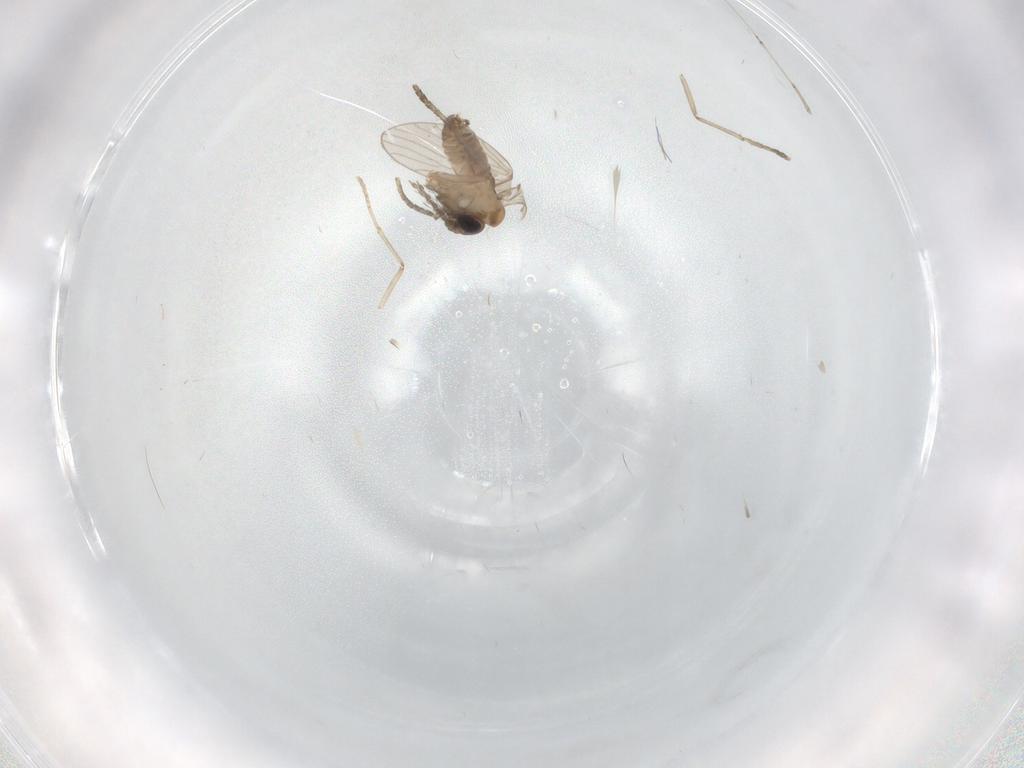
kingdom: Animalia
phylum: Arthropoda
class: Insecta
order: Diptera
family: Psychodidae
